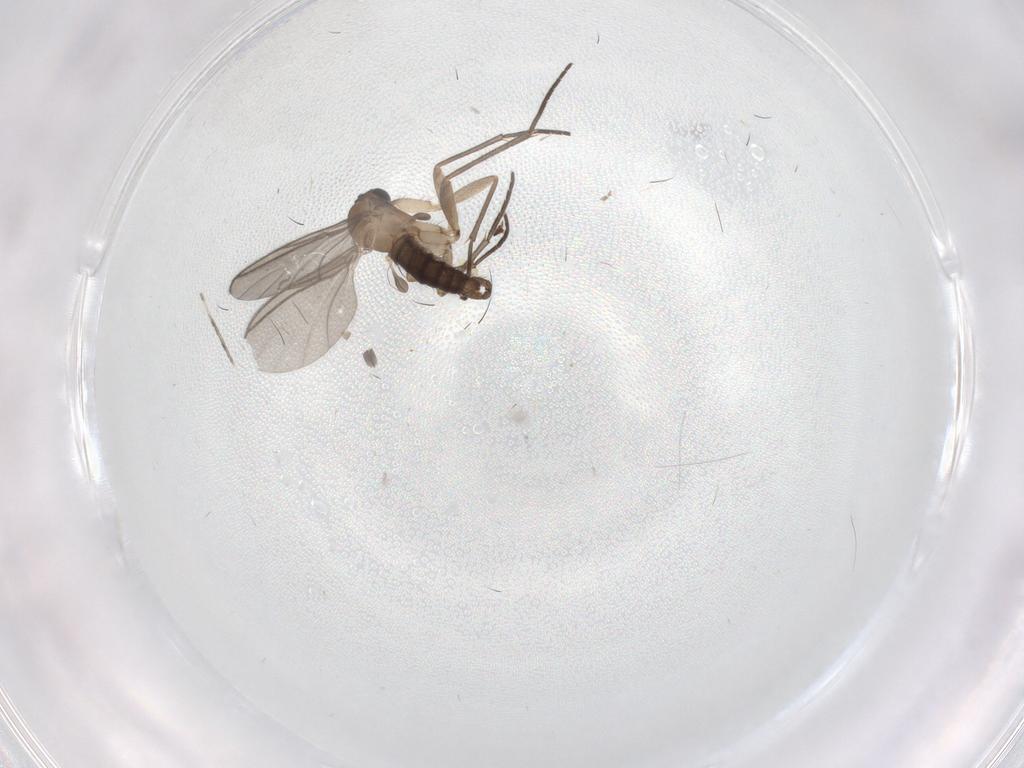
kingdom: Animalia
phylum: Arthropoda
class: Insecta
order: Diptera
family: Sciaridae
